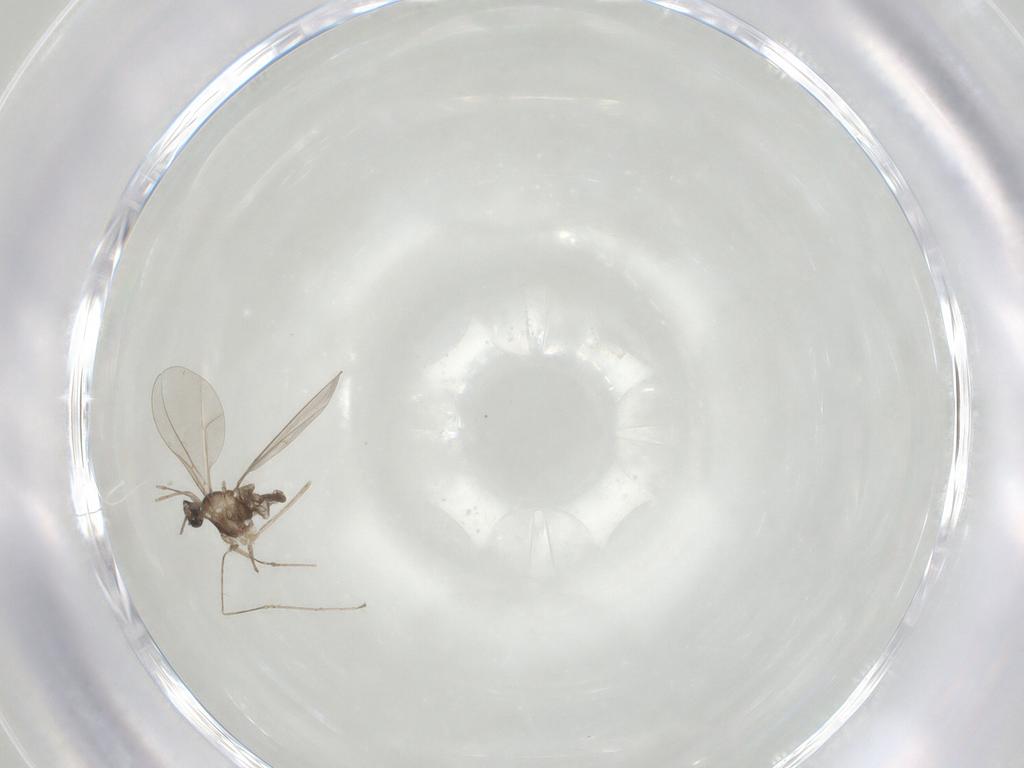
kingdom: Animalia
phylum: Arthropoda
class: Insecta
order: Diptera
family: Cecidomyiidae
